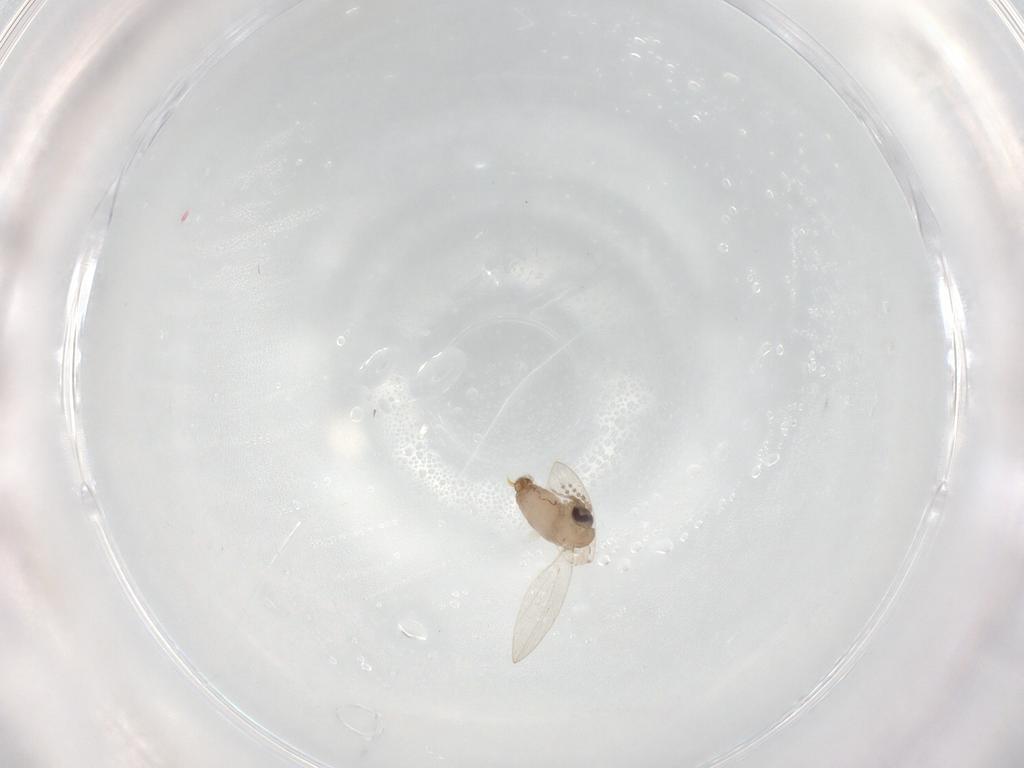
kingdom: Animalia
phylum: Arthropoda
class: Insecta
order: Diptera
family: Psychodidae
